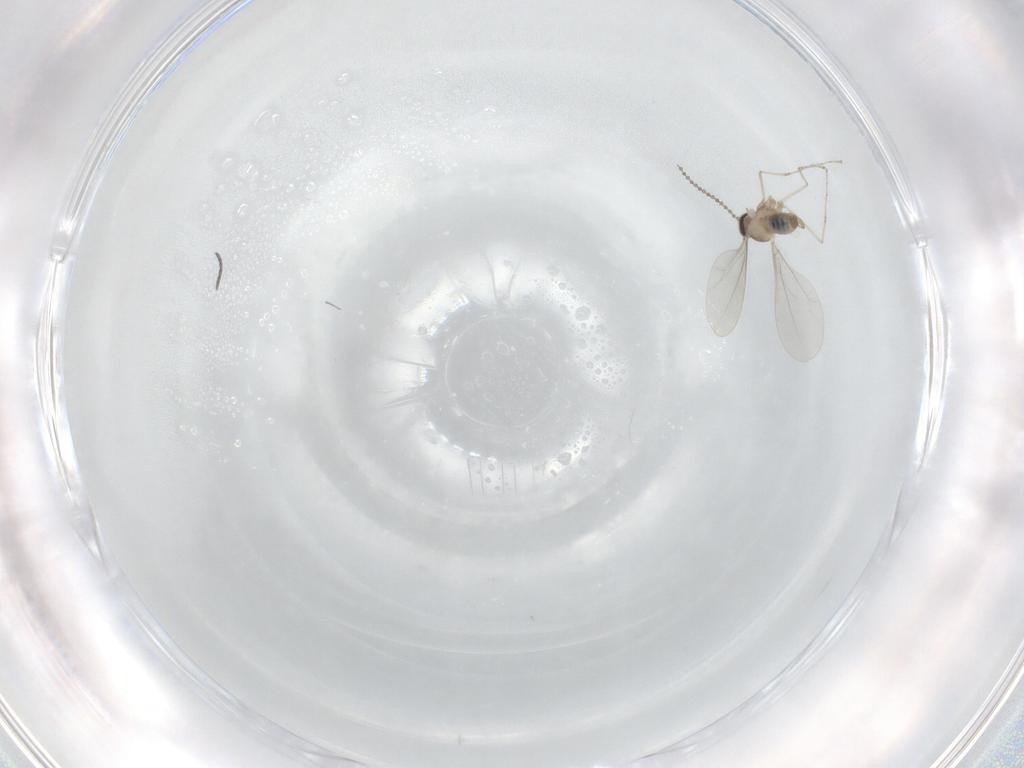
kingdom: Animalia
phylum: Arthropoda
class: Insecta
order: Diptera
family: Cecidomyiidae
